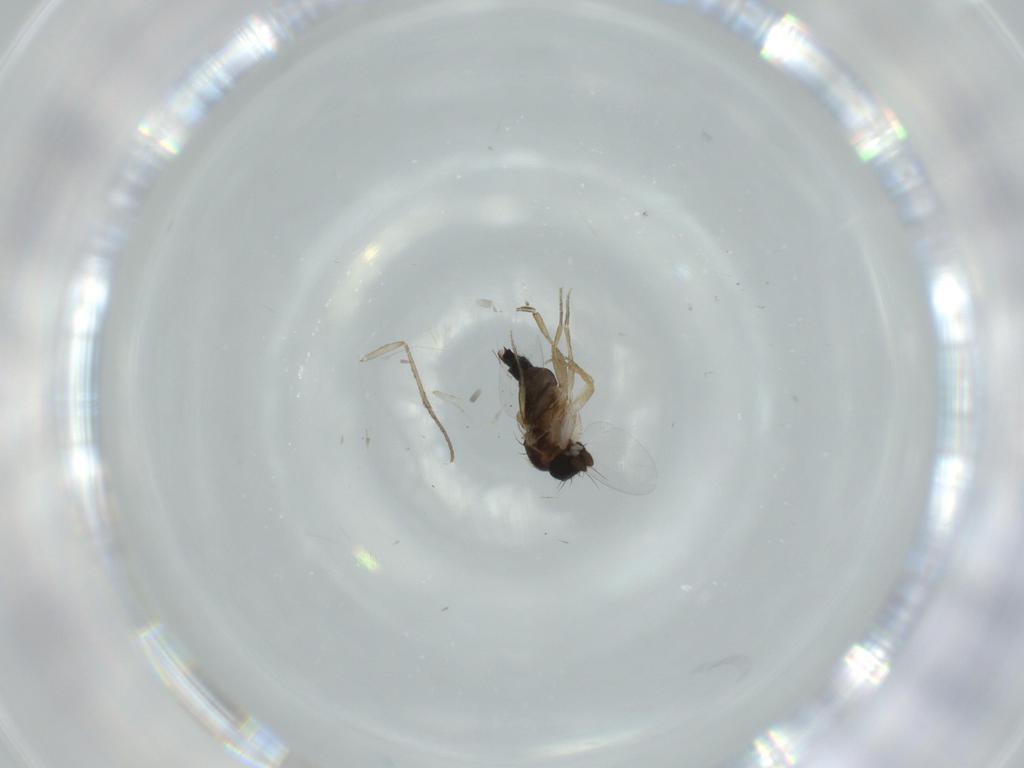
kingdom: Animalia
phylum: Arthropoda
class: Insecta
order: Diptera
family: Phoridae
